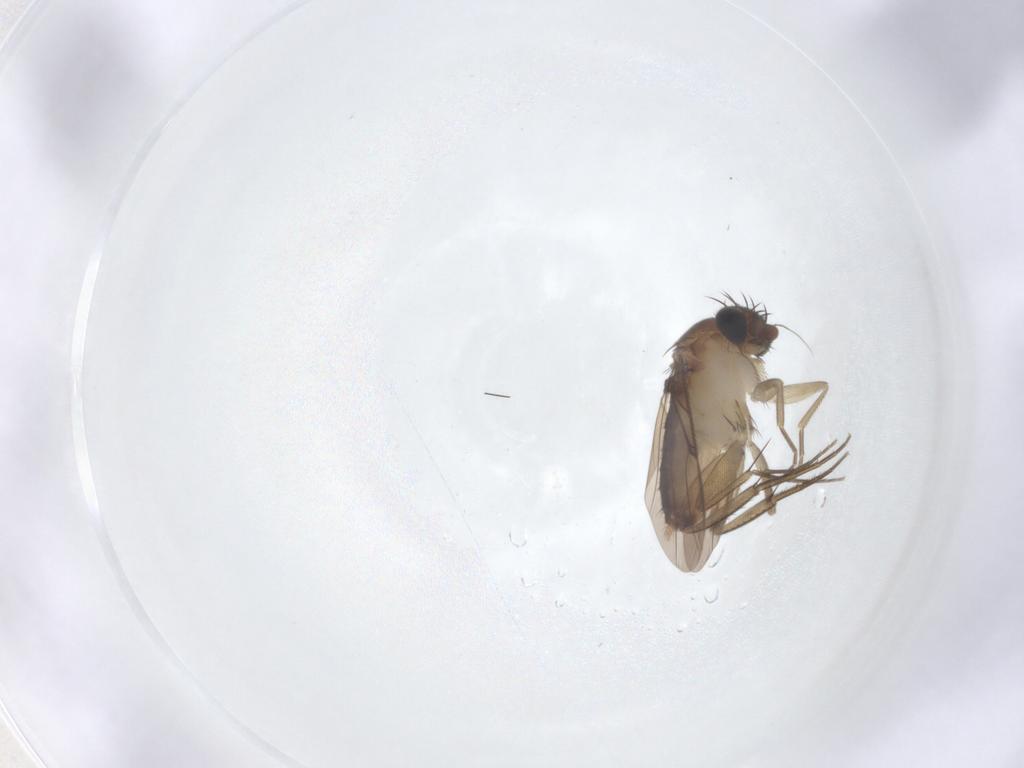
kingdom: Animalia
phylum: Arthropoda
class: Insecta
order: Diptera
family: Phoridae
